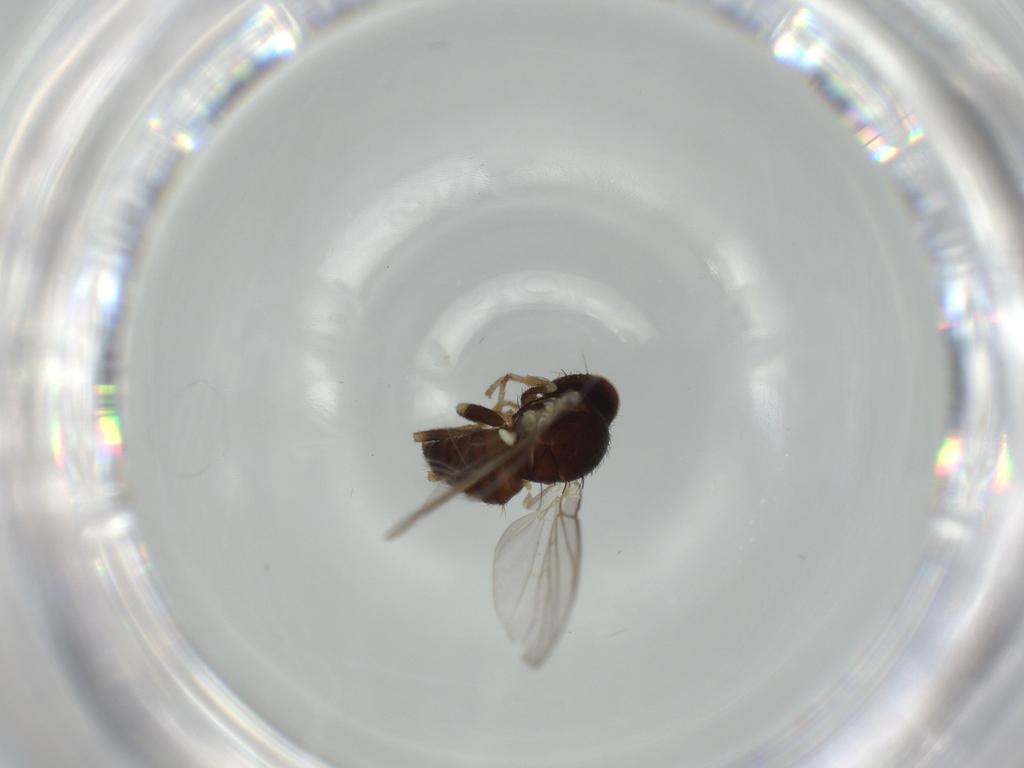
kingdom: Animalia
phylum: Arthropoda
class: Insecta
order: Diptera
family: Agromyzidae
